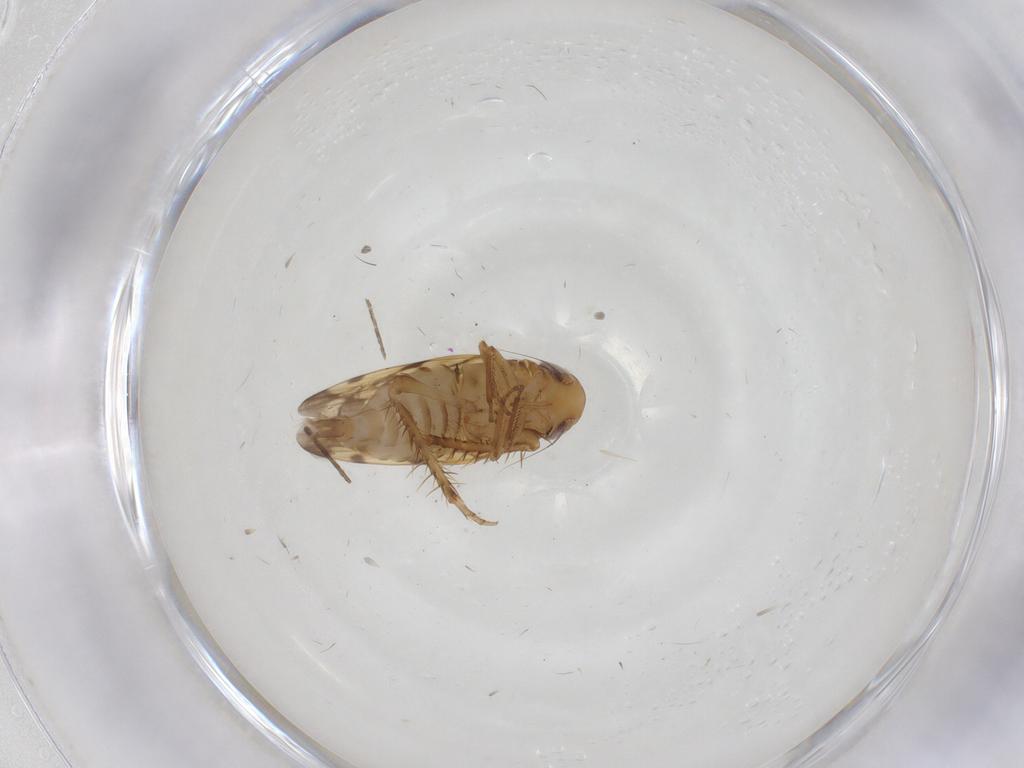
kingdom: Animalia
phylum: Arthropoda
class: Insecta
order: Hemiptera
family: Cicadellidae
